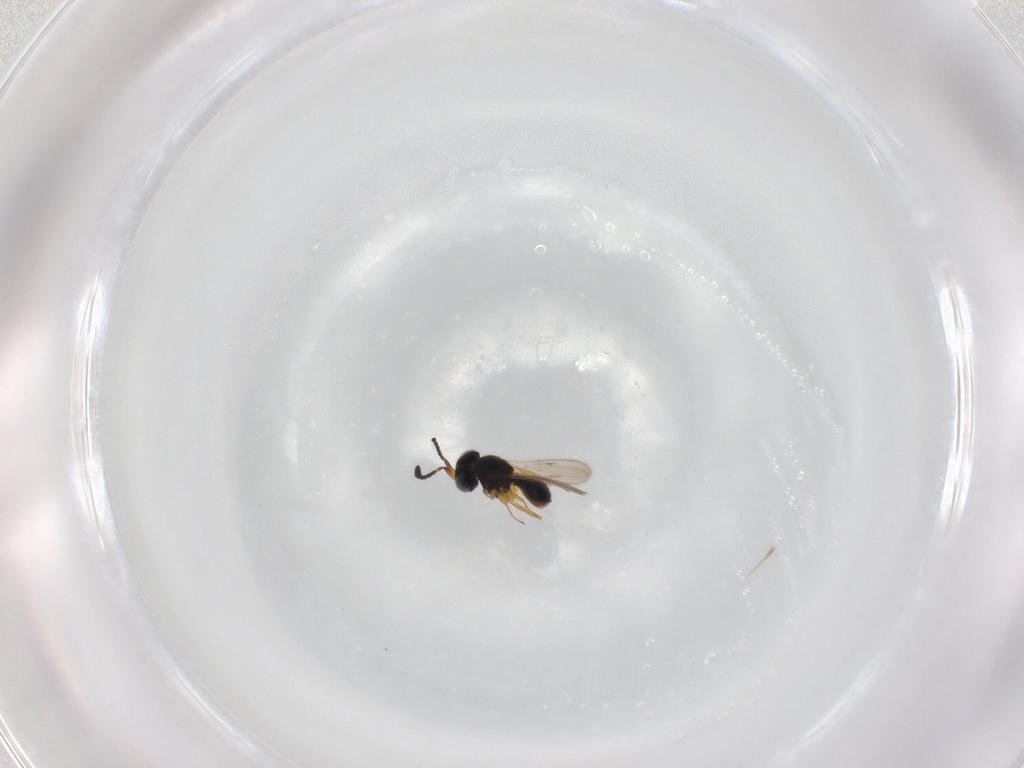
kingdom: Animalia
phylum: Arthropoda
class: Insecta
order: Hymenoptera
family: Scelionidae
